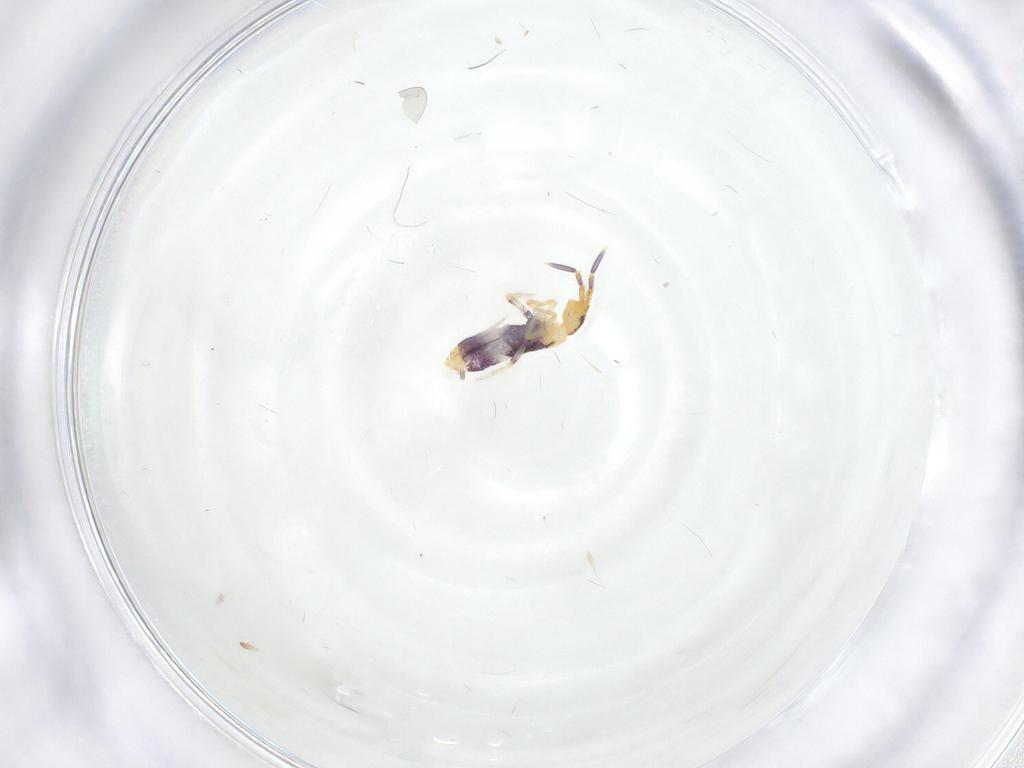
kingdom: Animalia
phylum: Arthropoda
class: Collembola
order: Entomobryomorpha
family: Entomobryidae
